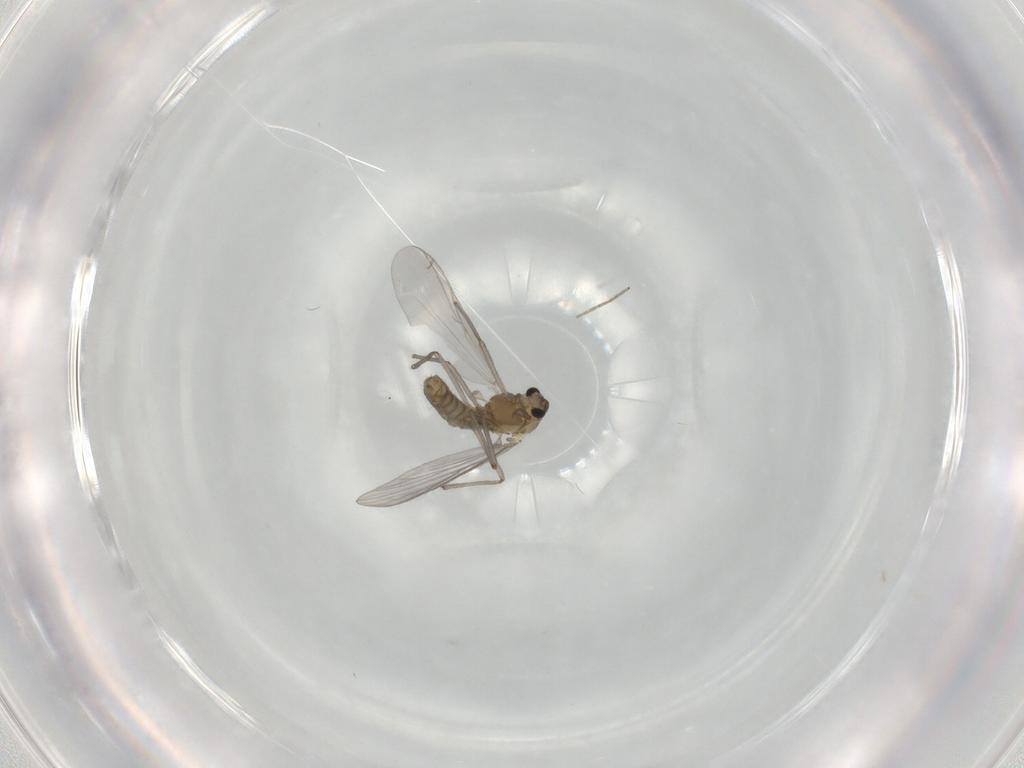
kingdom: Animalia
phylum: Arthropoda
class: Insecta
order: Diptera
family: Chironomidae
